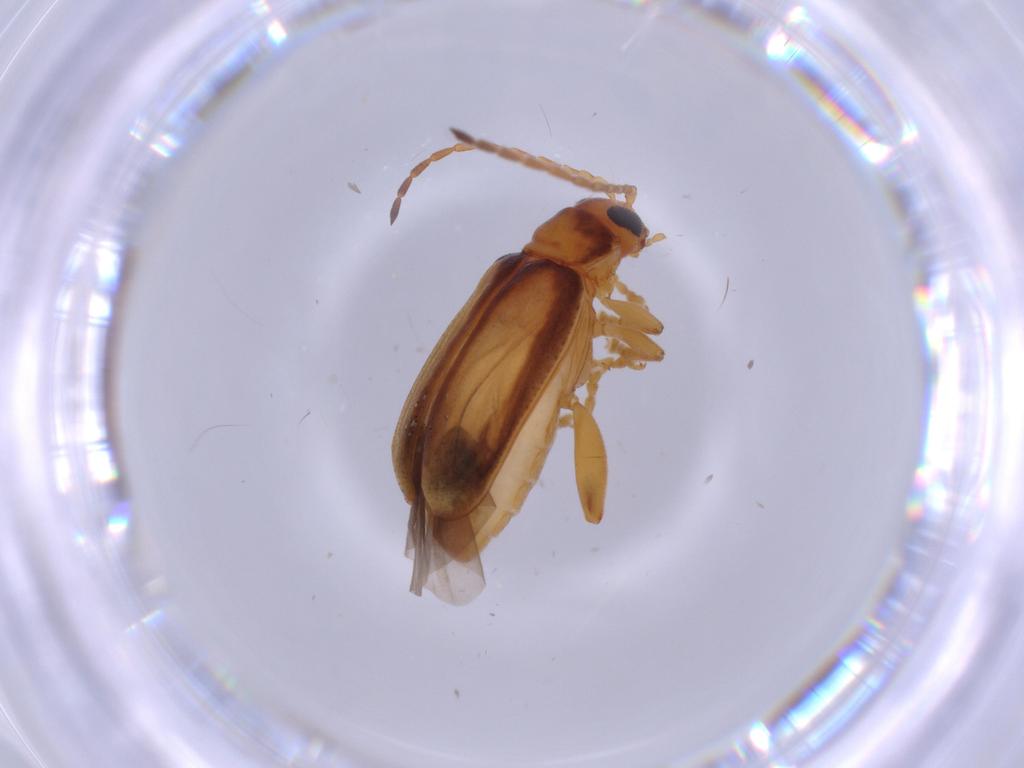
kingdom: Animalia
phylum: Arthropoda
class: Insecta
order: Coleoptera
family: Chrysomelidae
